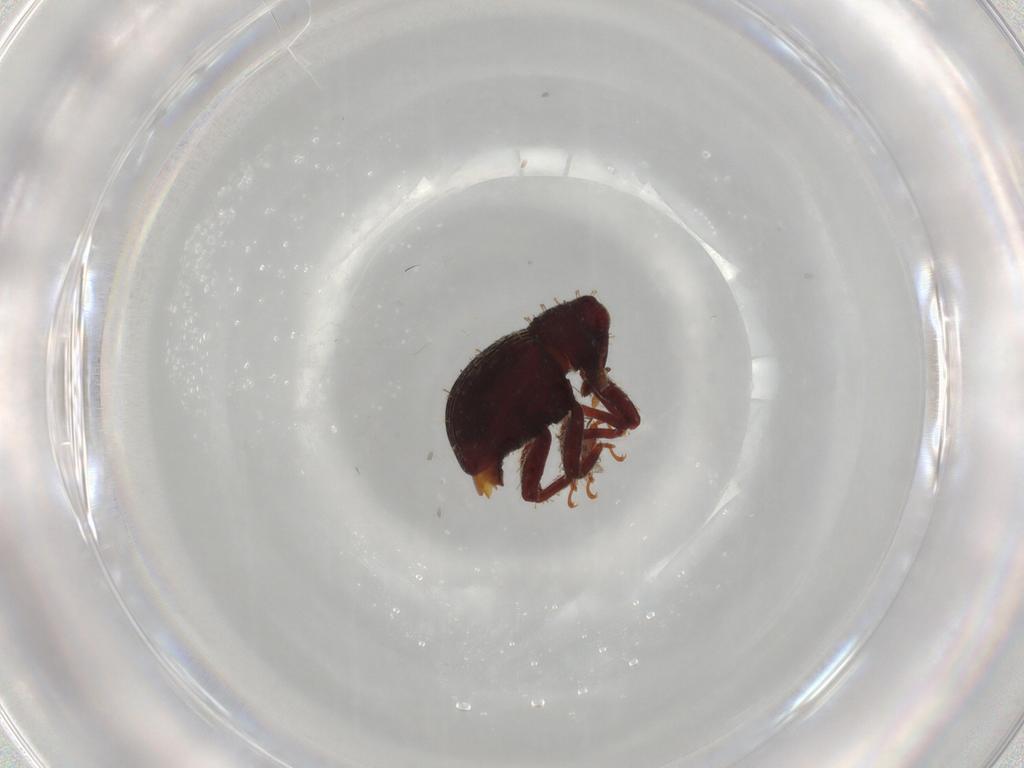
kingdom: Animalia
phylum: Arthropoda
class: Insecta
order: Coleoptera
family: Curculionidae
